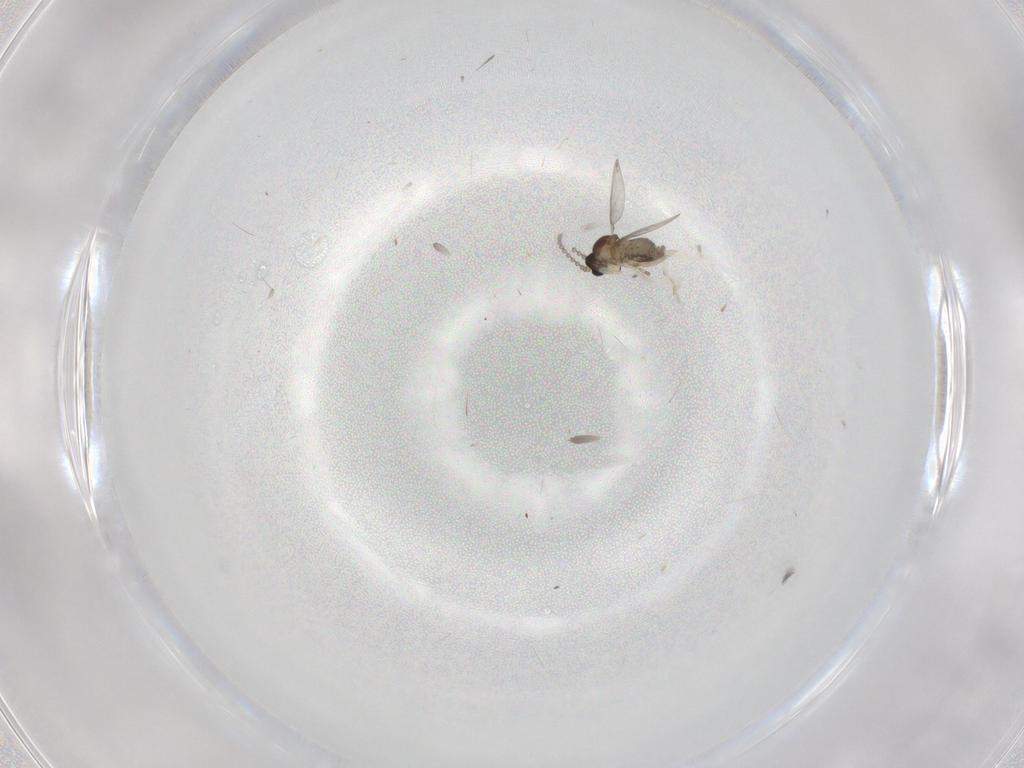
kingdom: Animalia
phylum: Arthropoda
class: Insecta
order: Diptera
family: Cecidomyiidae
